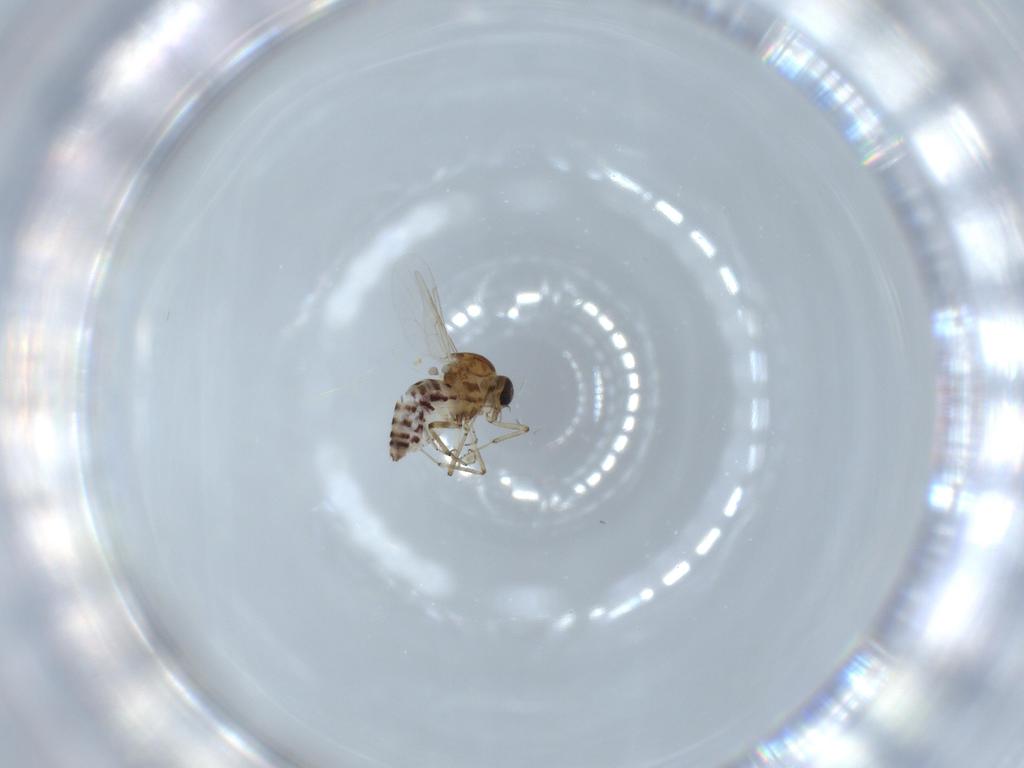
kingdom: Animalia
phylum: Arthropoda
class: Insecta
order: Diptera
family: Ceratopogonidae
